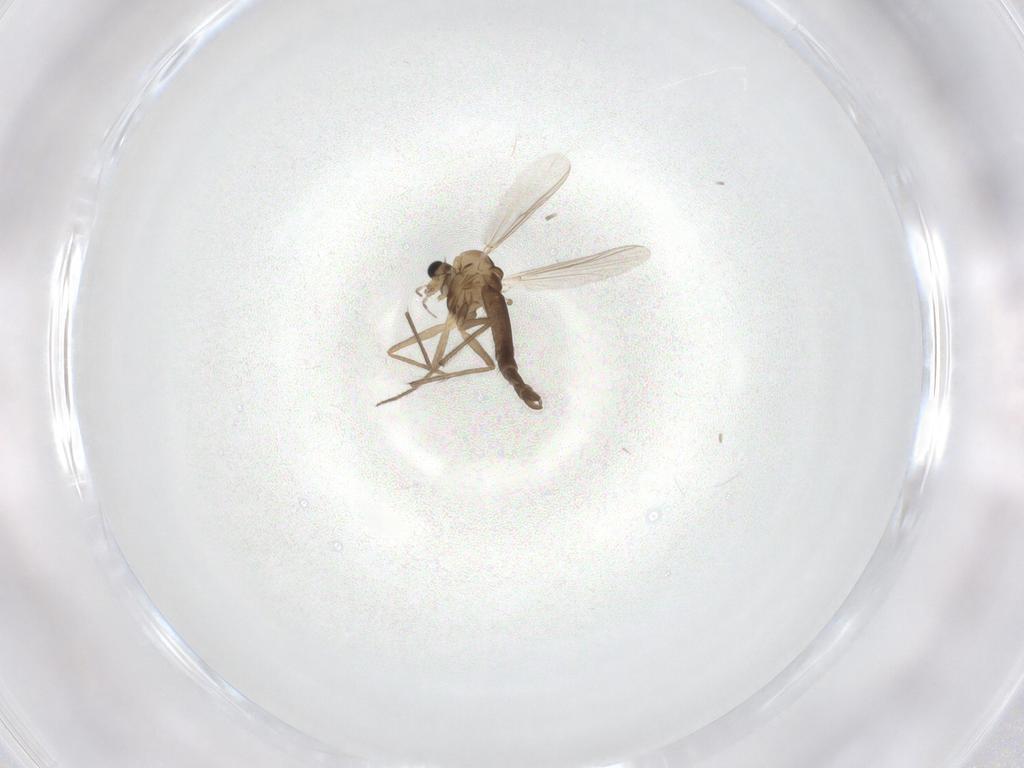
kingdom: Animalia
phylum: Arthropoda
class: Insecta
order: Diptera
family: Chironomidae
